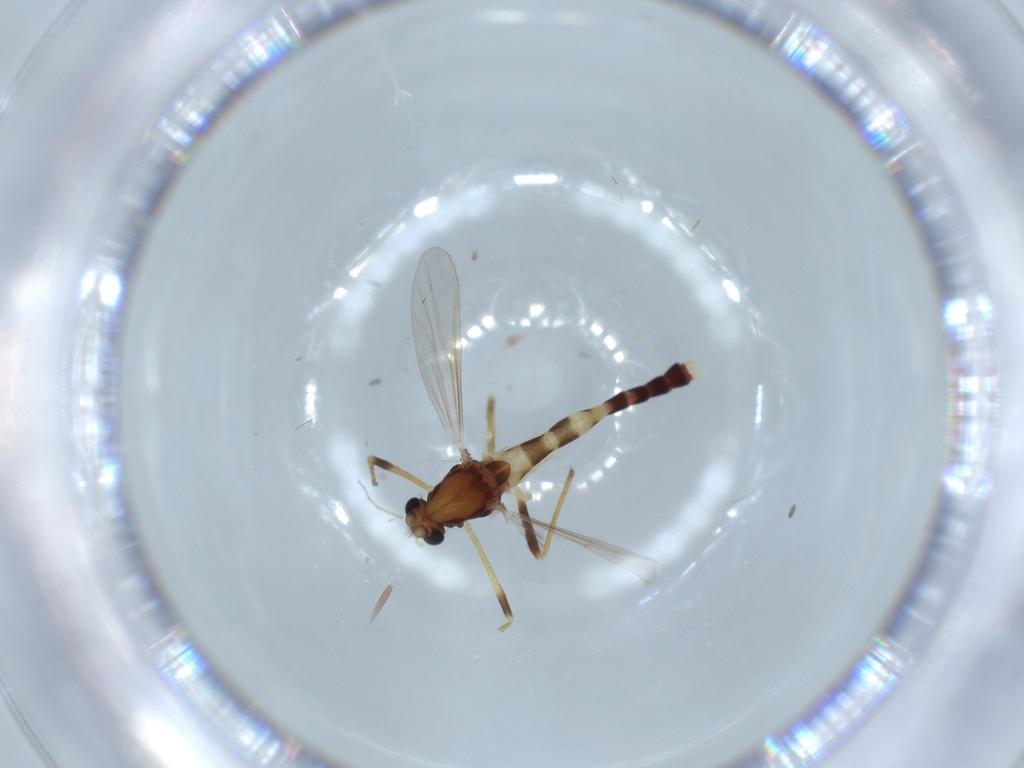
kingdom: Animalia
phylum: Arthropoda
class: Insecta
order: Diptera
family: Chironomidae
